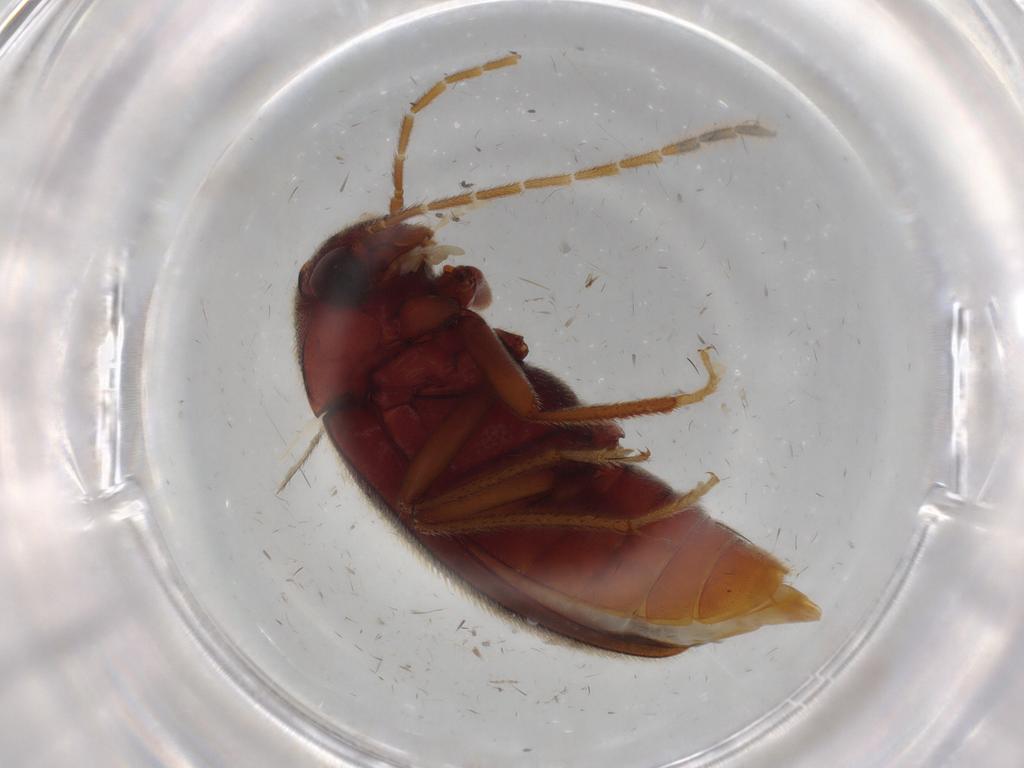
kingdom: Animalia
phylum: Arthropoda
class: Insecta
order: Coleoptera
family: Ptilodactylidae
